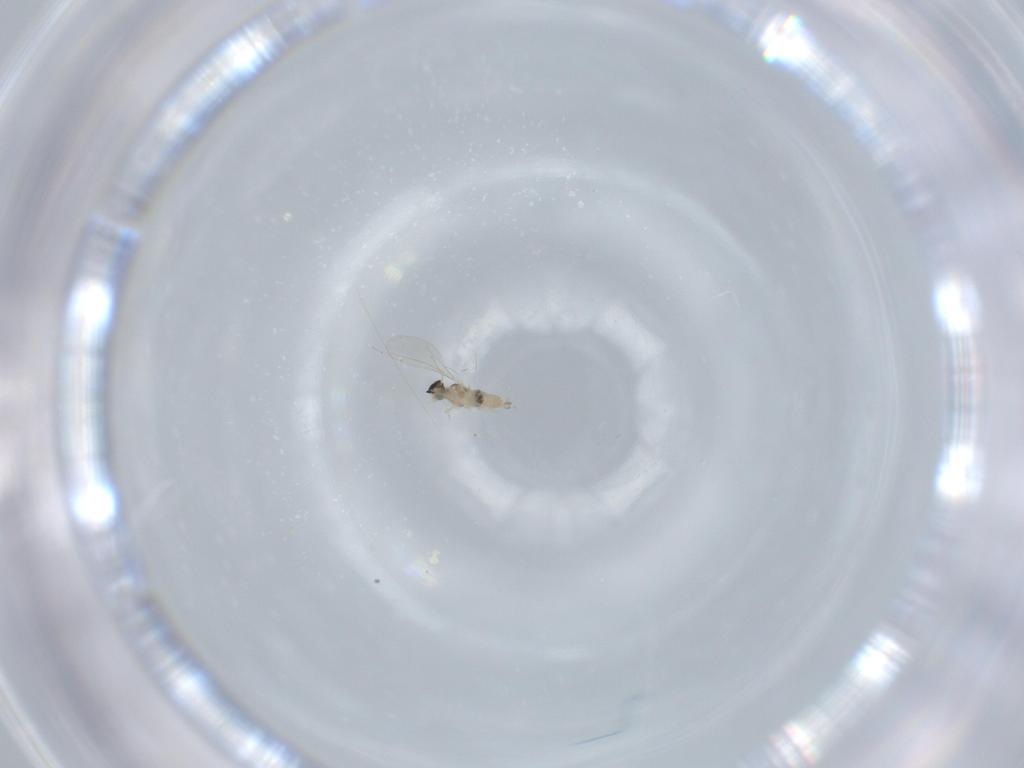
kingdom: Animalia
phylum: Arthropoda
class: Insecta
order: Diptera
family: Cecidomyiidae
